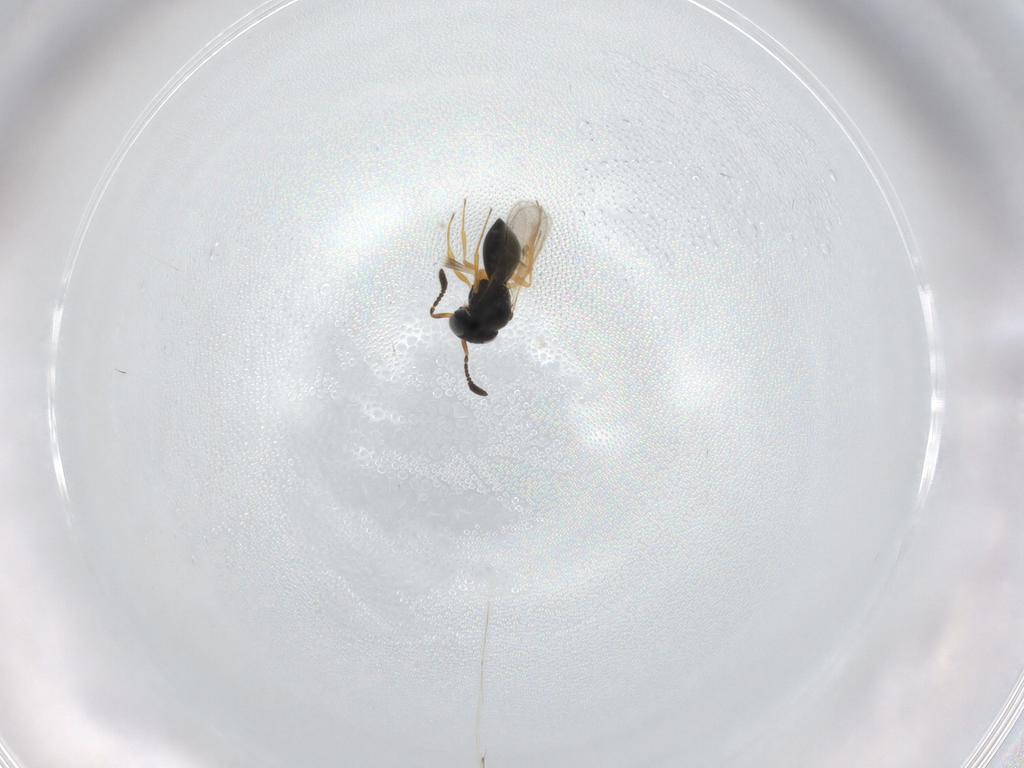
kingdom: Animalia
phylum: Arthropoda
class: Insecta
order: Hymenoptera
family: Scelionidae
